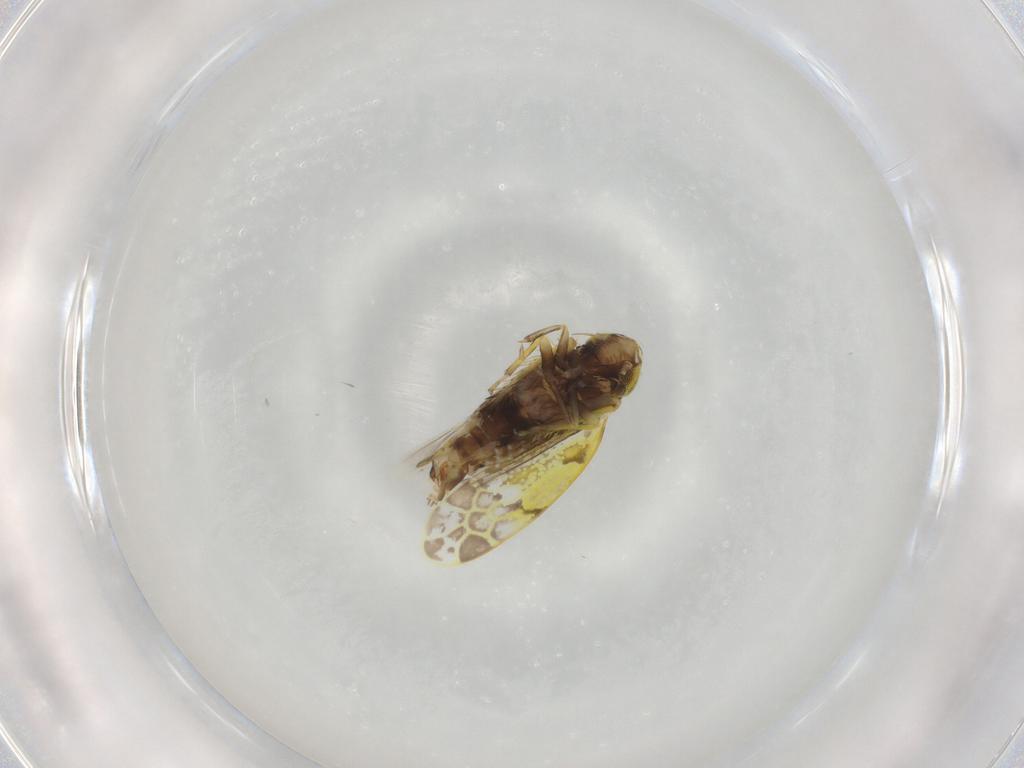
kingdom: Animalia
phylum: Arthropoda
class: Insecta
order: Hemiptera
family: Cicadellidae
